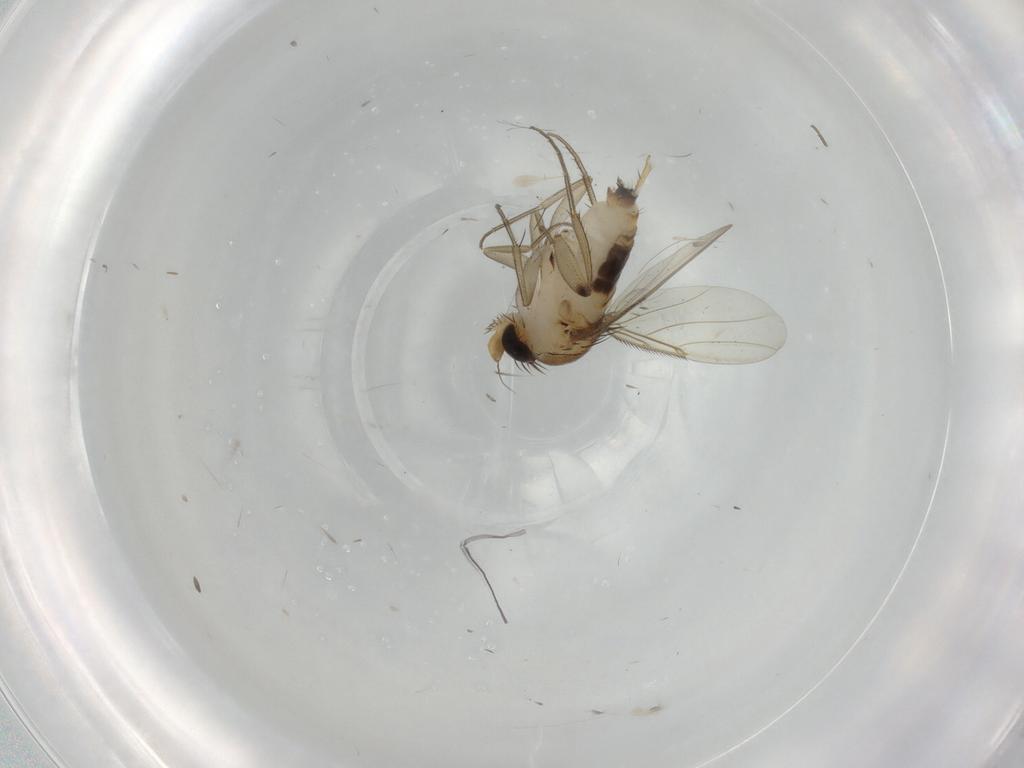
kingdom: Animalia
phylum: Arthropoda
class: Insecta
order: Diptera
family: Phoridae
